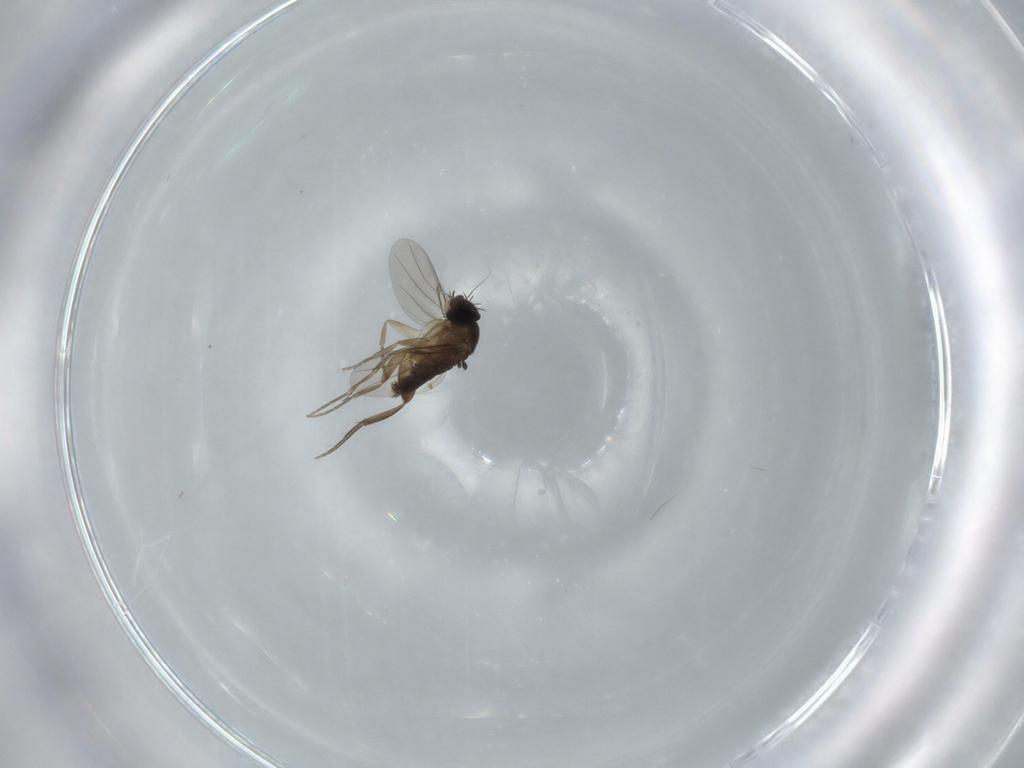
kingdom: Animalia
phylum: Arthropoda
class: Insecta
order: Diptera
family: Phoridae
